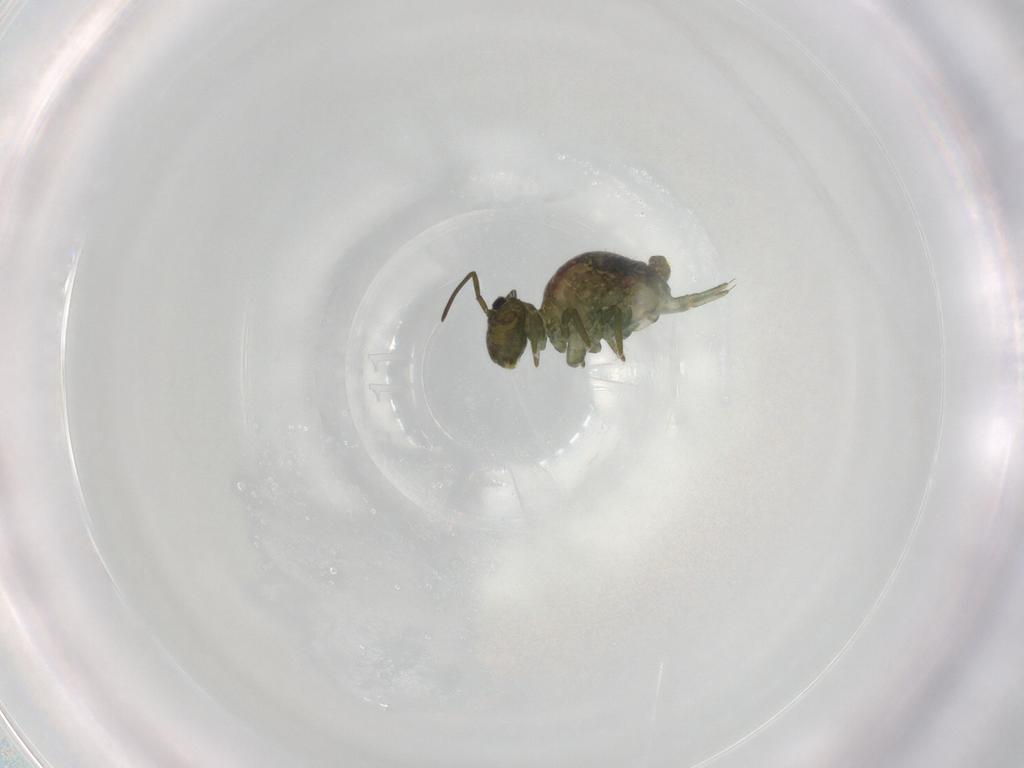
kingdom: Animalia
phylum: Arthropoda
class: Collembola
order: Symphypleona
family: Sminthuridae
